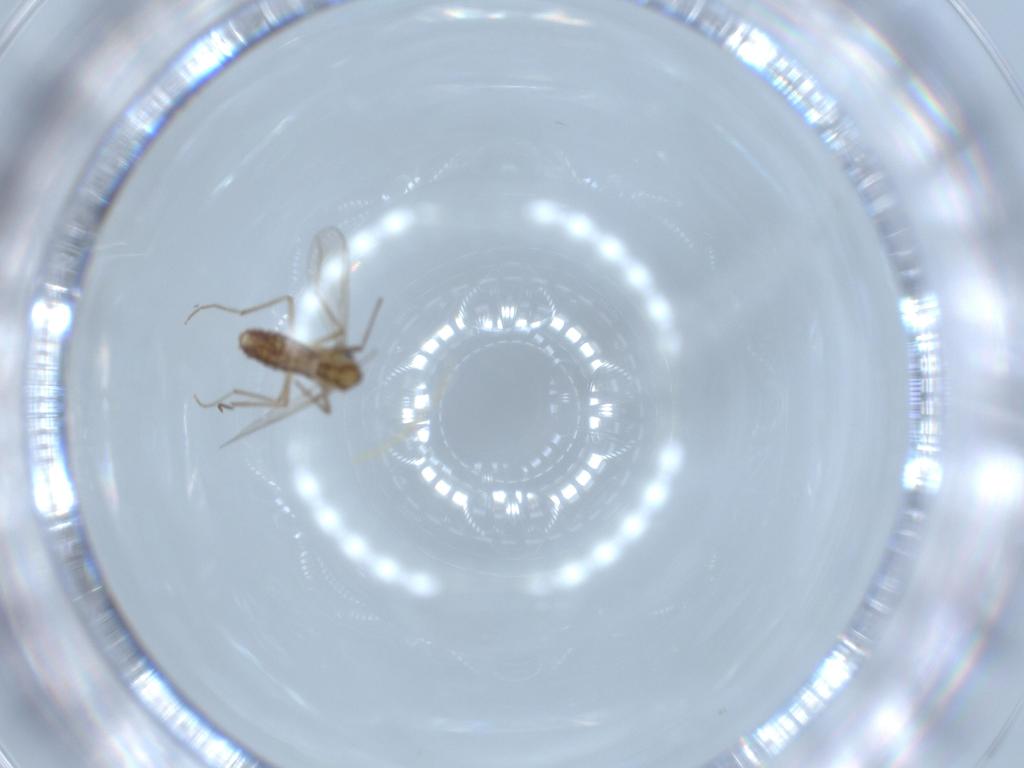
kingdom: Animalia
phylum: Arthropoda
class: Insecta
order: Diptera
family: Chironomidae
